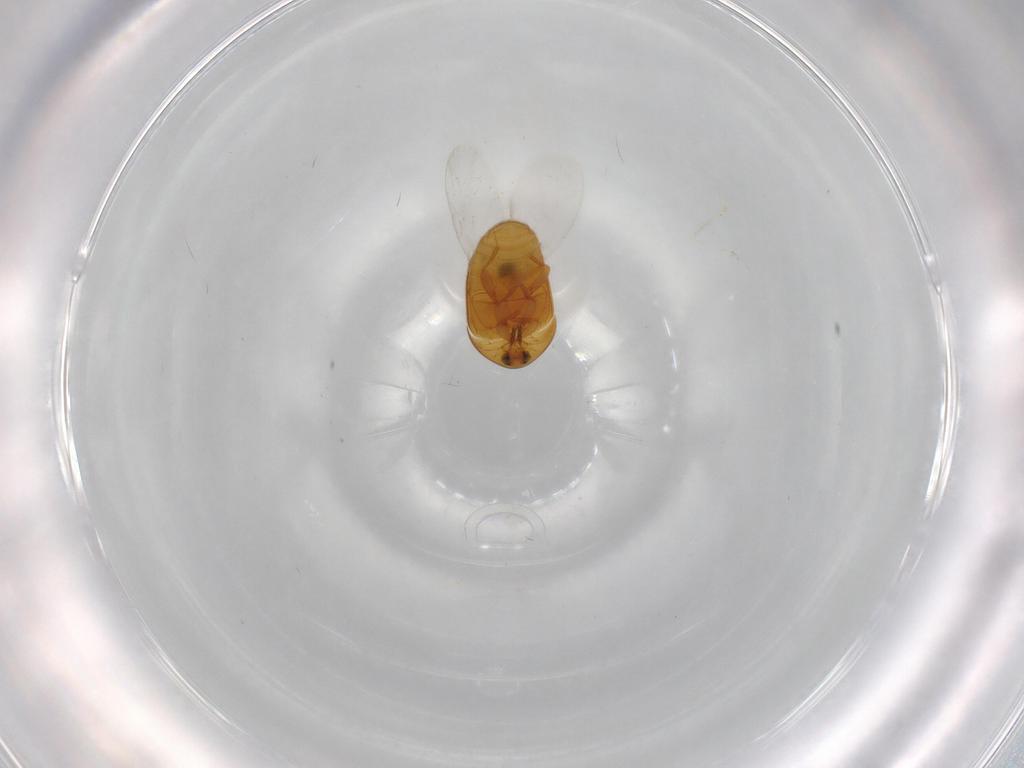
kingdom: Animalia
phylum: Arthropoda
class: Insecta
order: Coleoptera
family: Corylophidae
